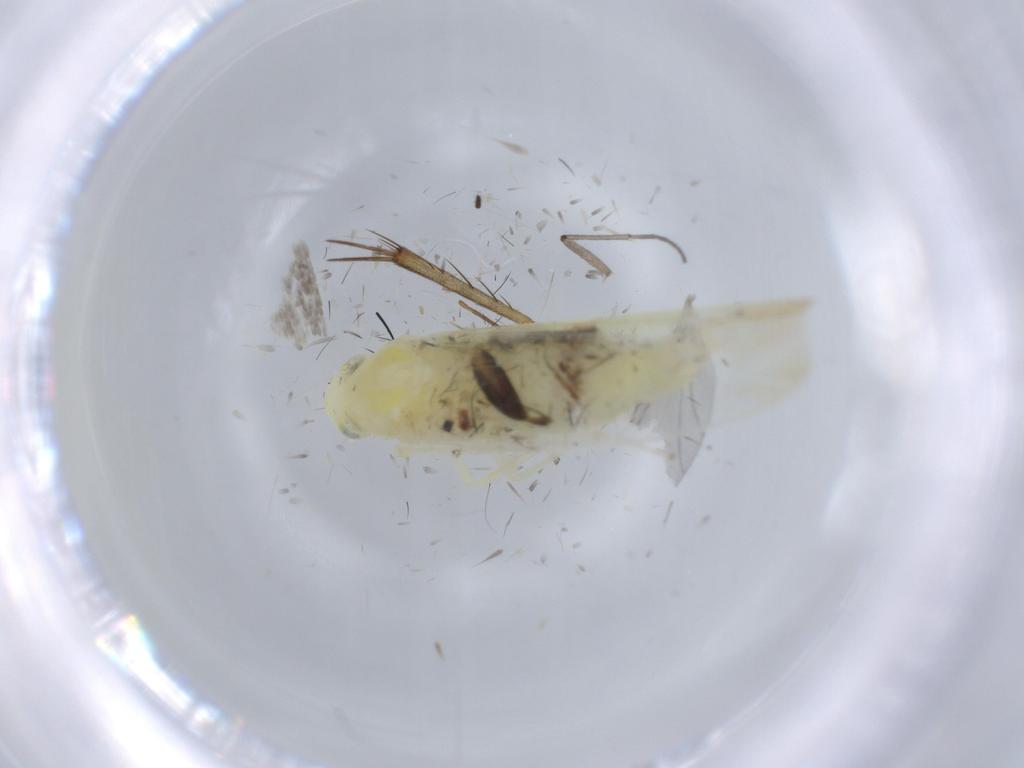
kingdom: Animalia
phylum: Arthropoda
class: Insecta
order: Hemiptera
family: Cicadellidae
